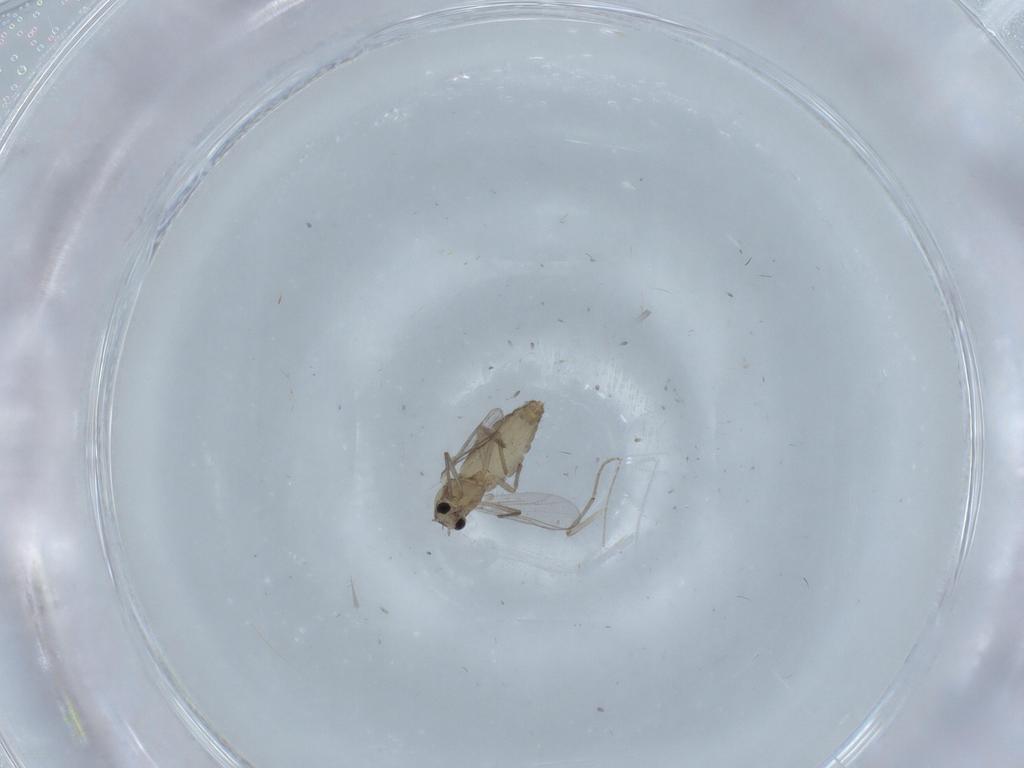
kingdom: Animalia
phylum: Arthropoda
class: Insecta
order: Diptera
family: Chironomidae
